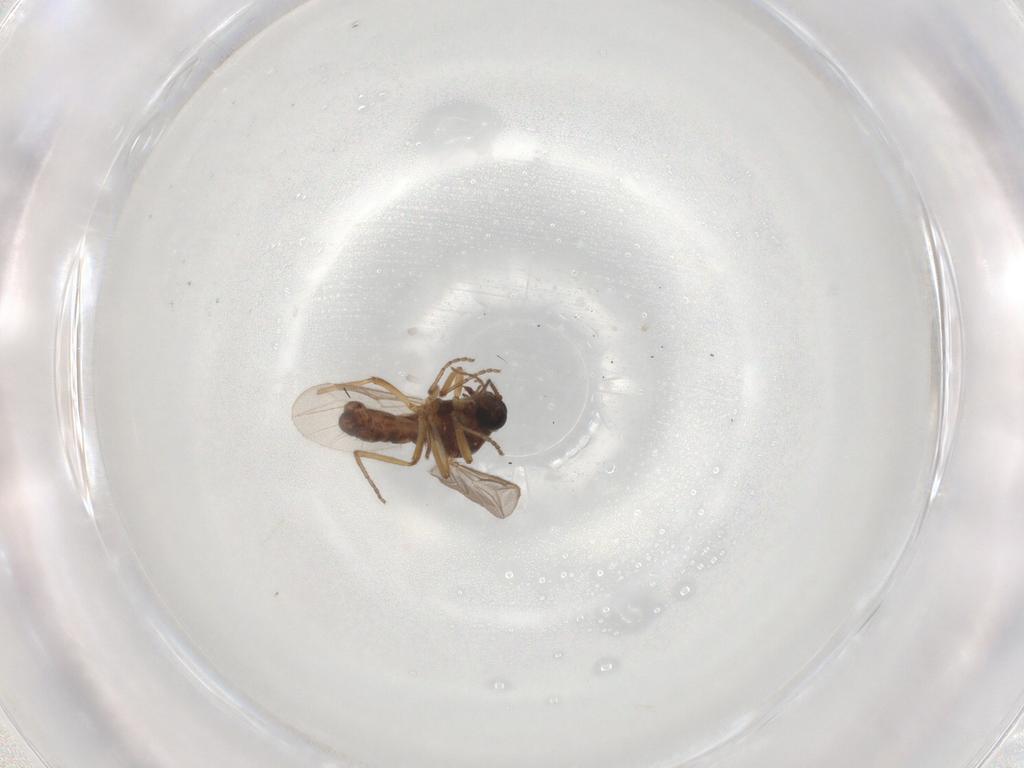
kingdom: Animalia
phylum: Arthropoda
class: Insecta
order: Diptera
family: Ceratopogonidae
